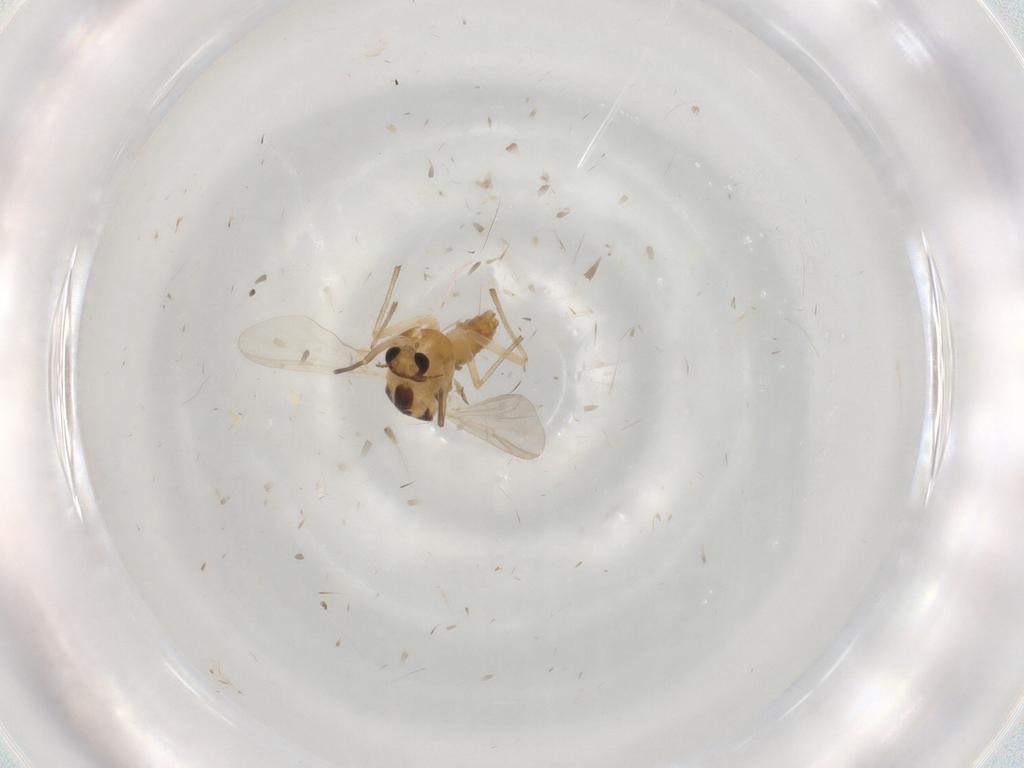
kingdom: Animalia
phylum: Arthropoda
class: Insecta
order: Diptera
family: Chironomidae
